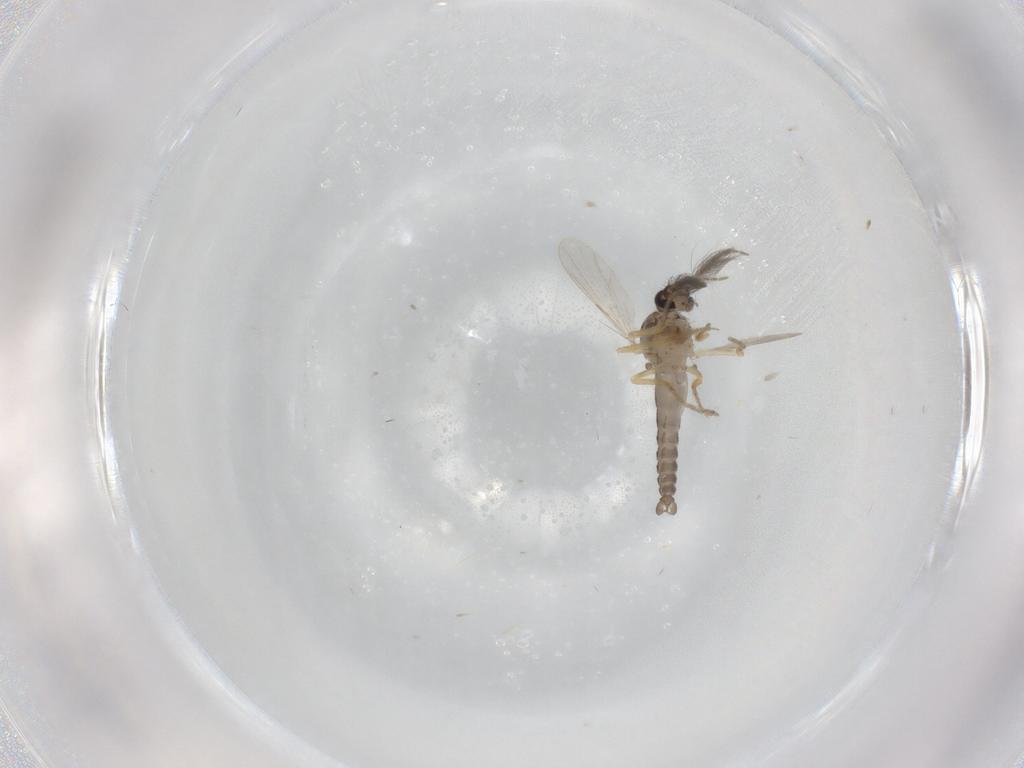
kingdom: Animalia
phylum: Arthropoda
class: Insecta
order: Diptera
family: Ceratopogonidae
